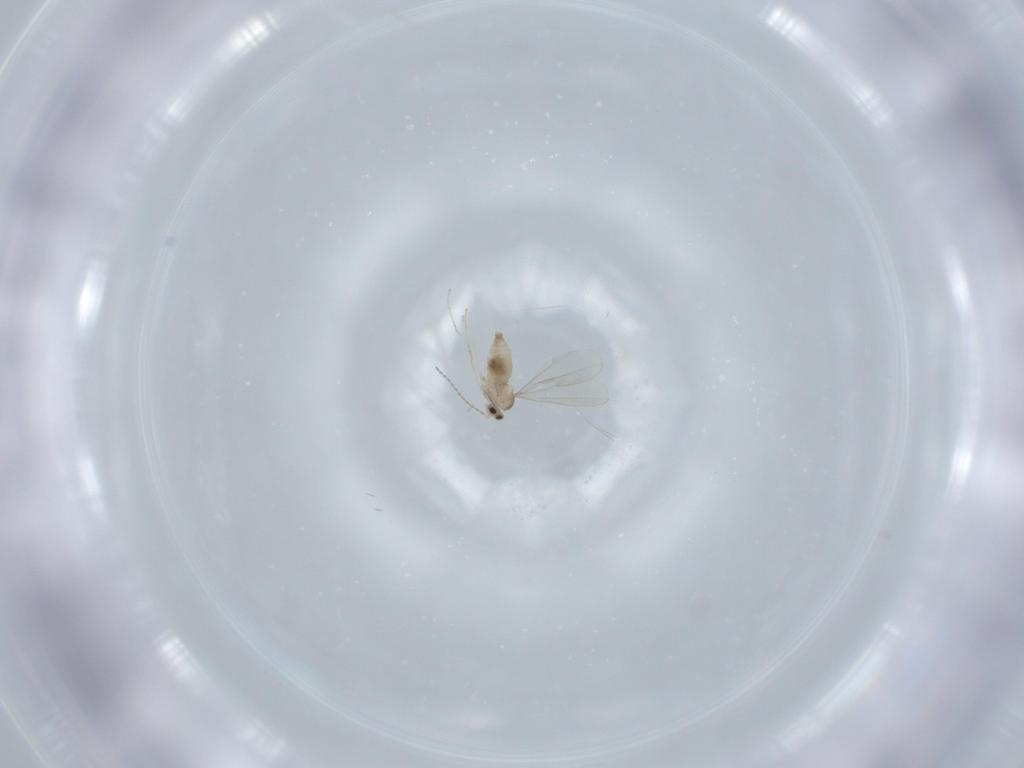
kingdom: Animalia
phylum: Arthropoda
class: Insecta
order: Diptera
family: Cecidomyiidae
